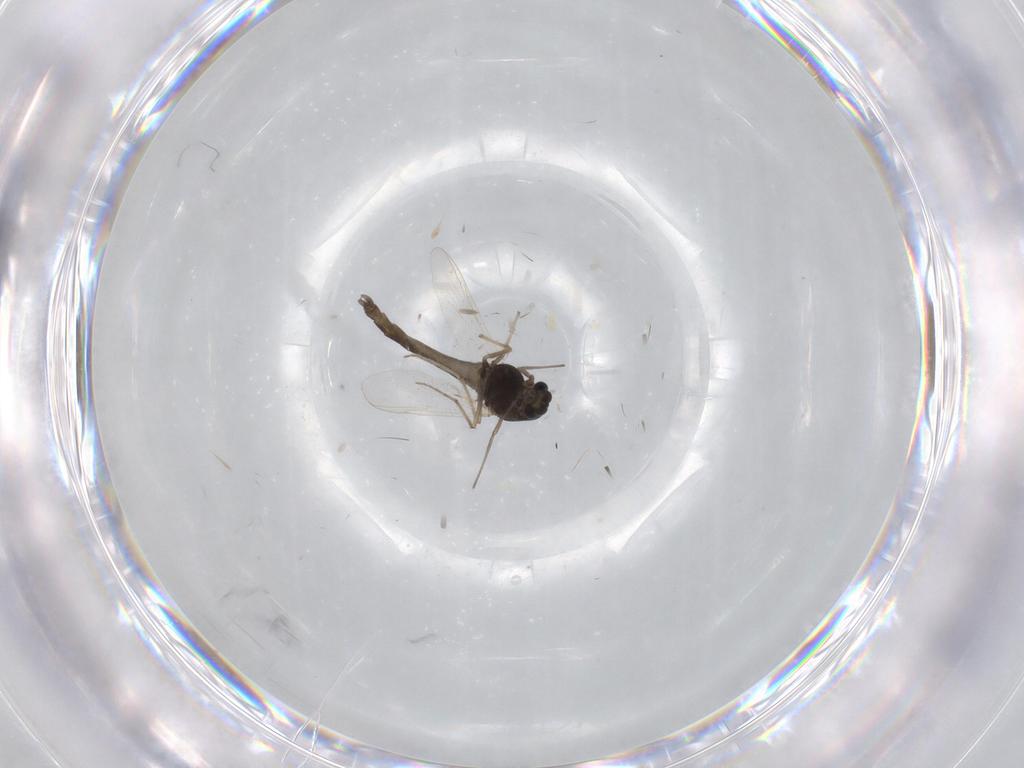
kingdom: Animalia
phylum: Arthropoda
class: Insecta
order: Diptera
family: Chironomidae
